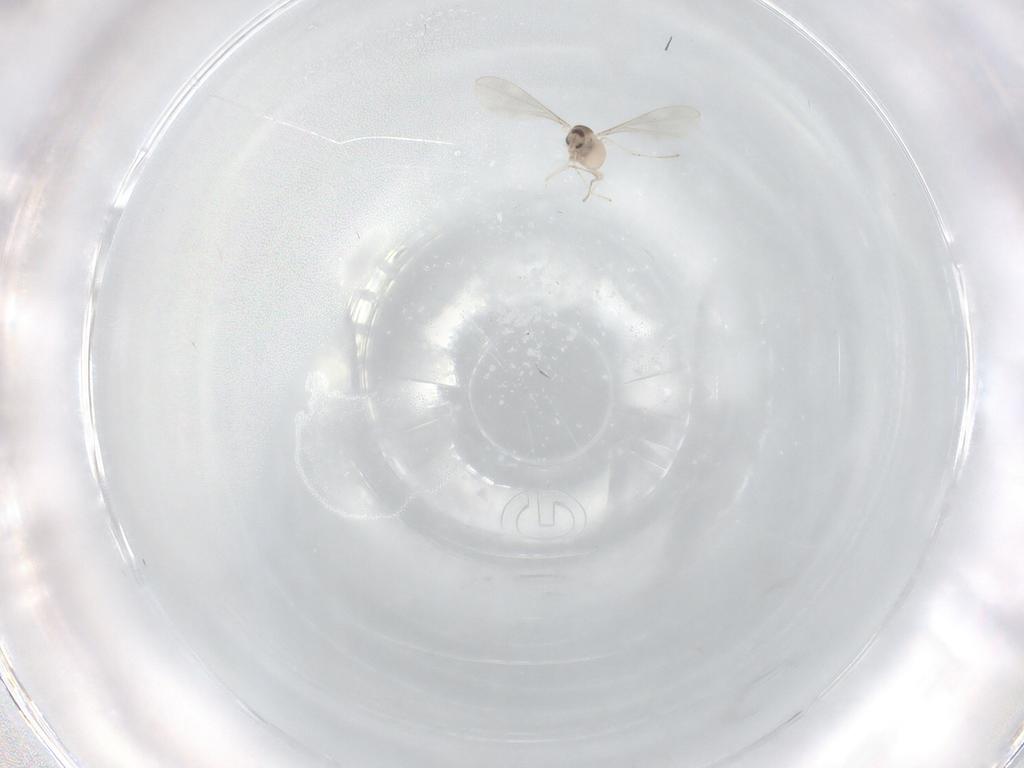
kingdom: Animalia
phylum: Arthropoda
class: Insecta
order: Diptera
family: Cecidomyiidae
